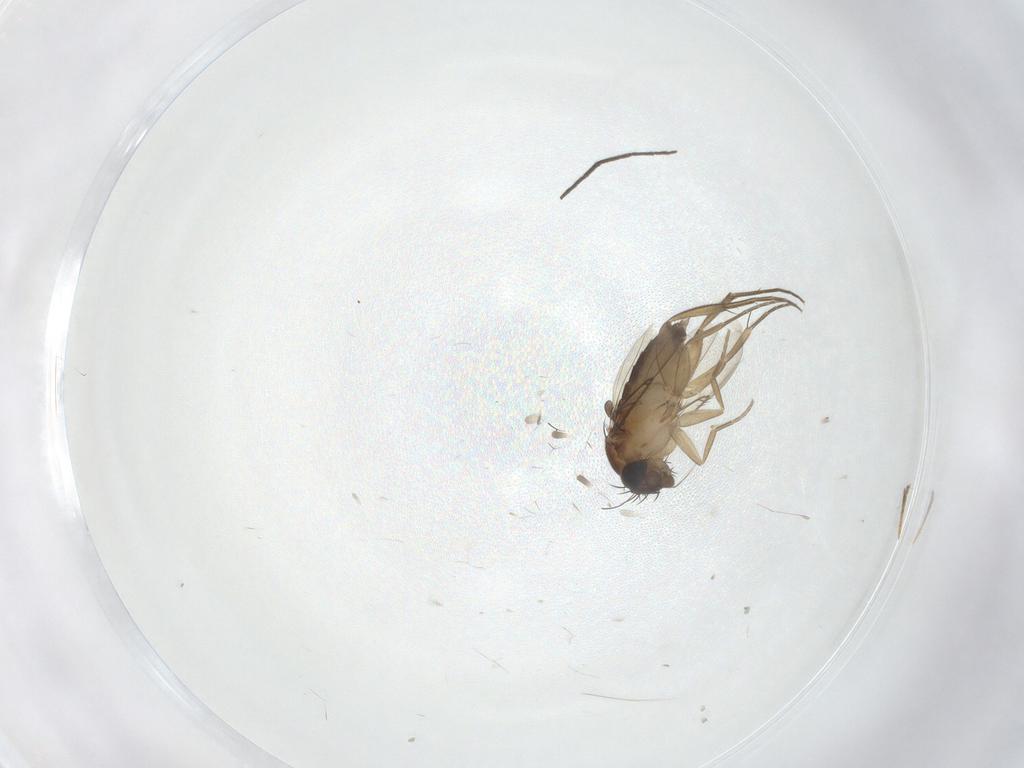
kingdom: Animalia
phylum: Arthropoda
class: Insecta
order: Diptera
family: Phoridae
